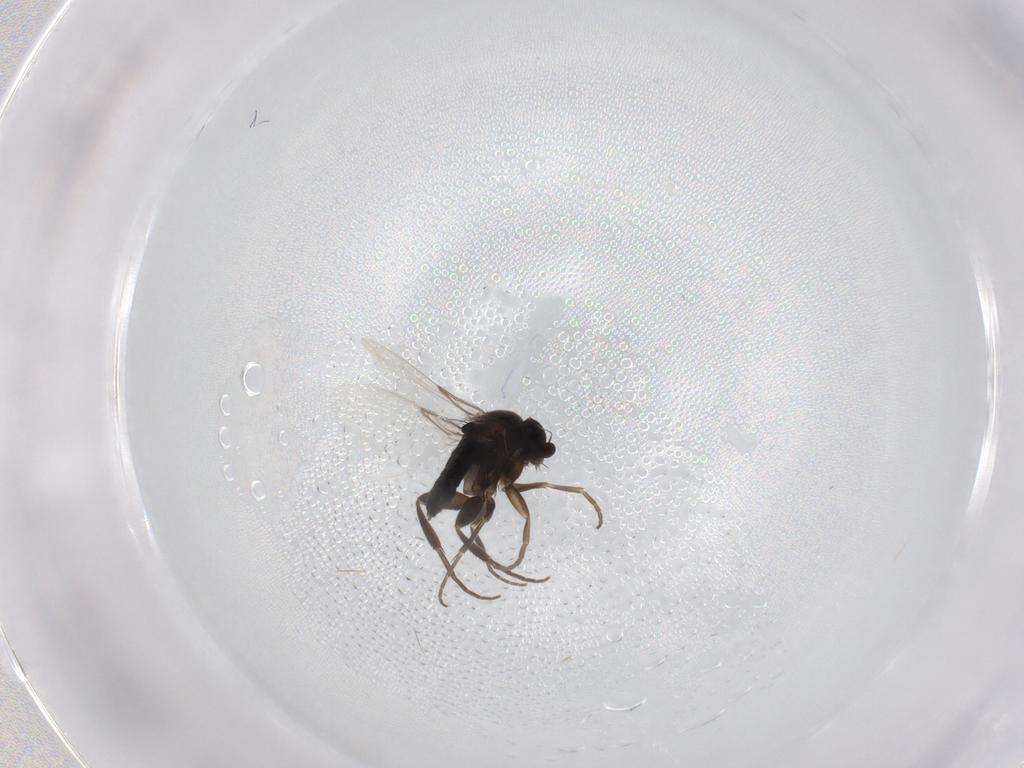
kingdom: Animalia
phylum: Arthropoda
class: Insecta
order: Diptera
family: Phoridae
